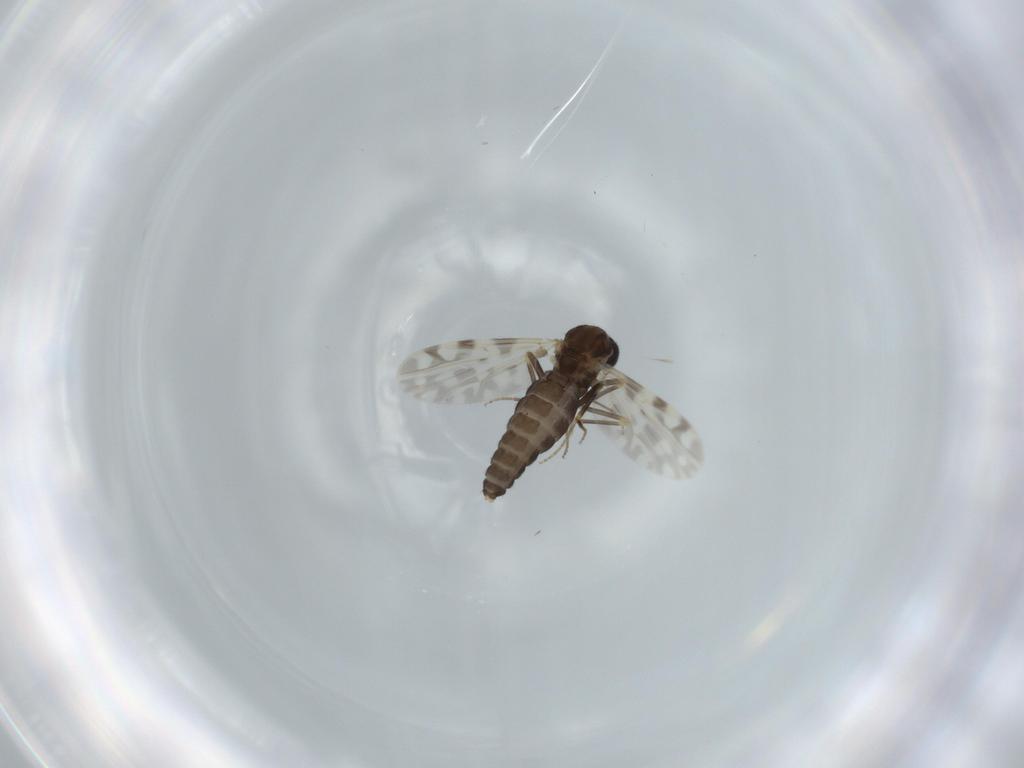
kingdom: Animalia
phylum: Arthropoda
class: Insecta
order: Diptera
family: Ceratopogonidae
